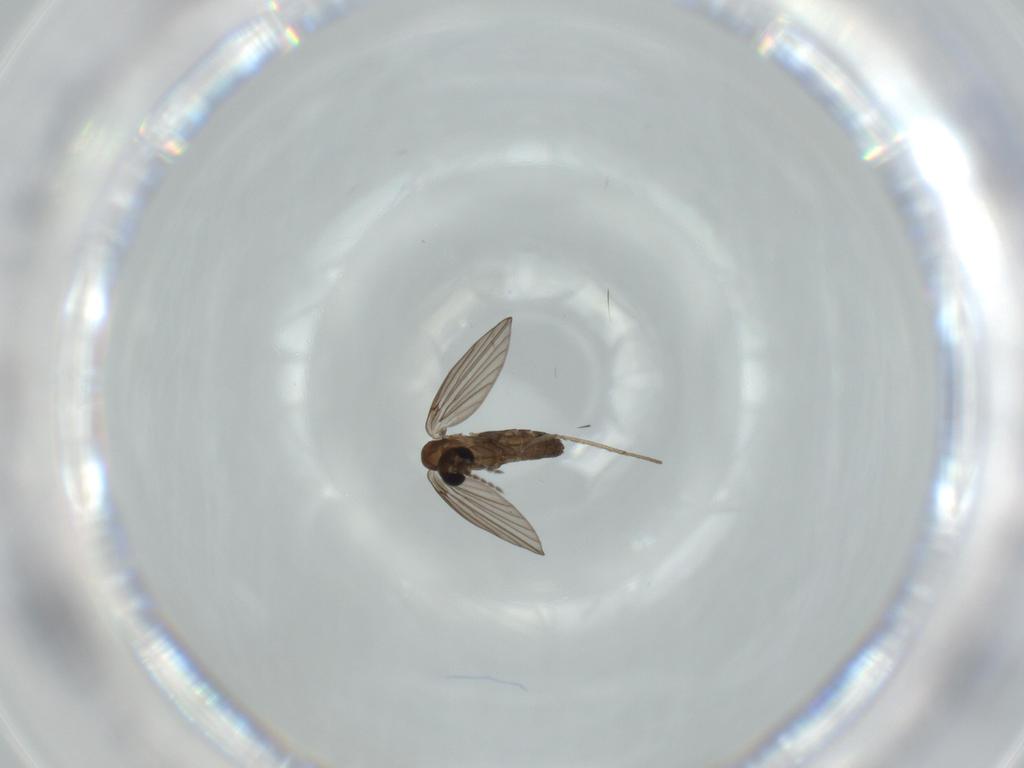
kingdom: Animalia
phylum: Arthropoda
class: Insecta
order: Diptera
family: Psychodidae
